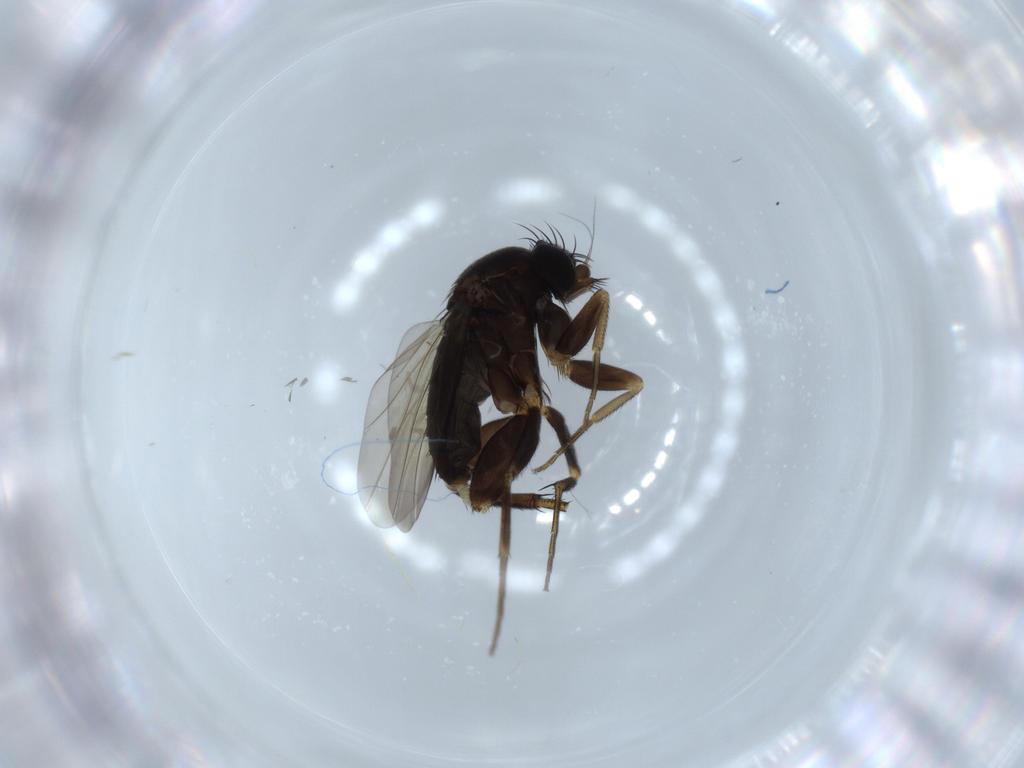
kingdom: Animalia
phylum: Arthropoda
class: Insecta
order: Diptera
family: Phoridae
